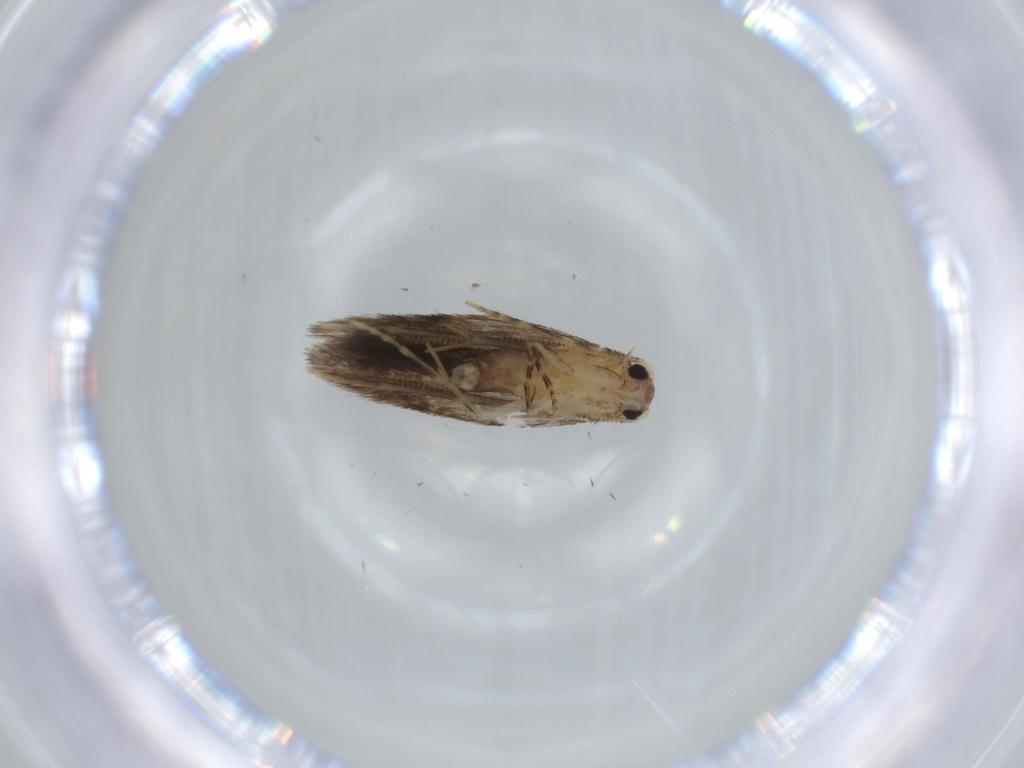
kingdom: Animalia
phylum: Arthropoda
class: Insecta
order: Lepidoptera
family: Tineidae
